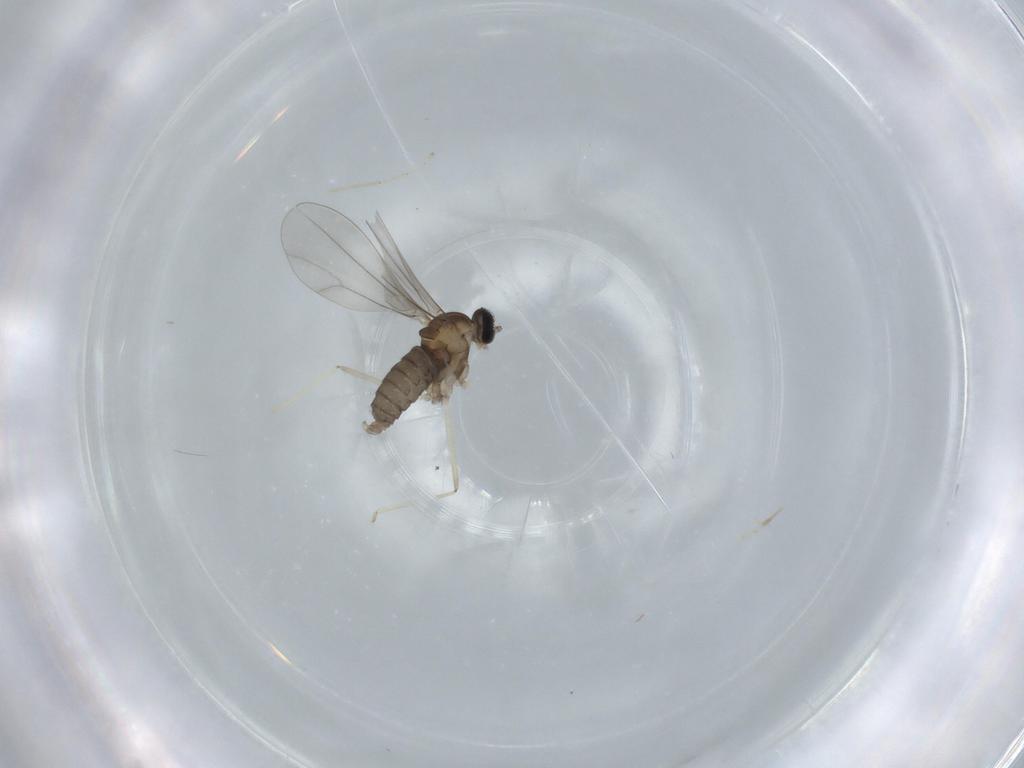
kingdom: Animalia
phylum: Arthropoda
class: Insecta
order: Diptera
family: Cecidomyiidae
